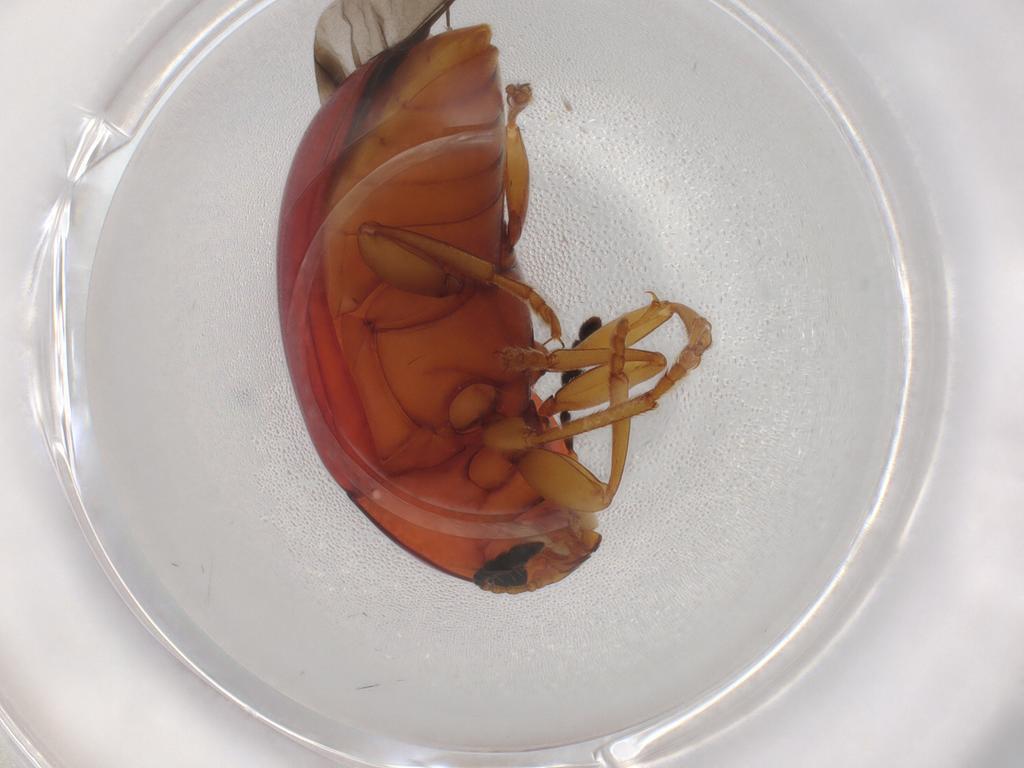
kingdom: Animalia
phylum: Arthropoda
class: Insecta
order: Coleoptera
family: Erotylidae
